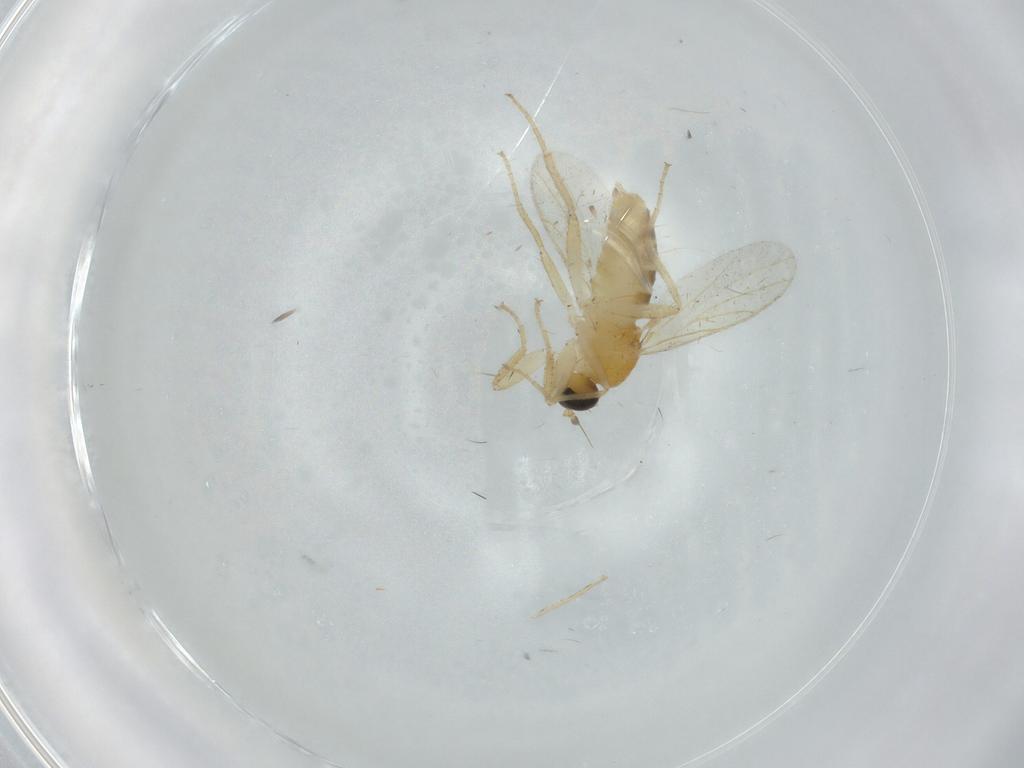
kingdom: Animalia
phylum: Arthropoda
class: Insecta
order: Diptera
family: Hybotidae
